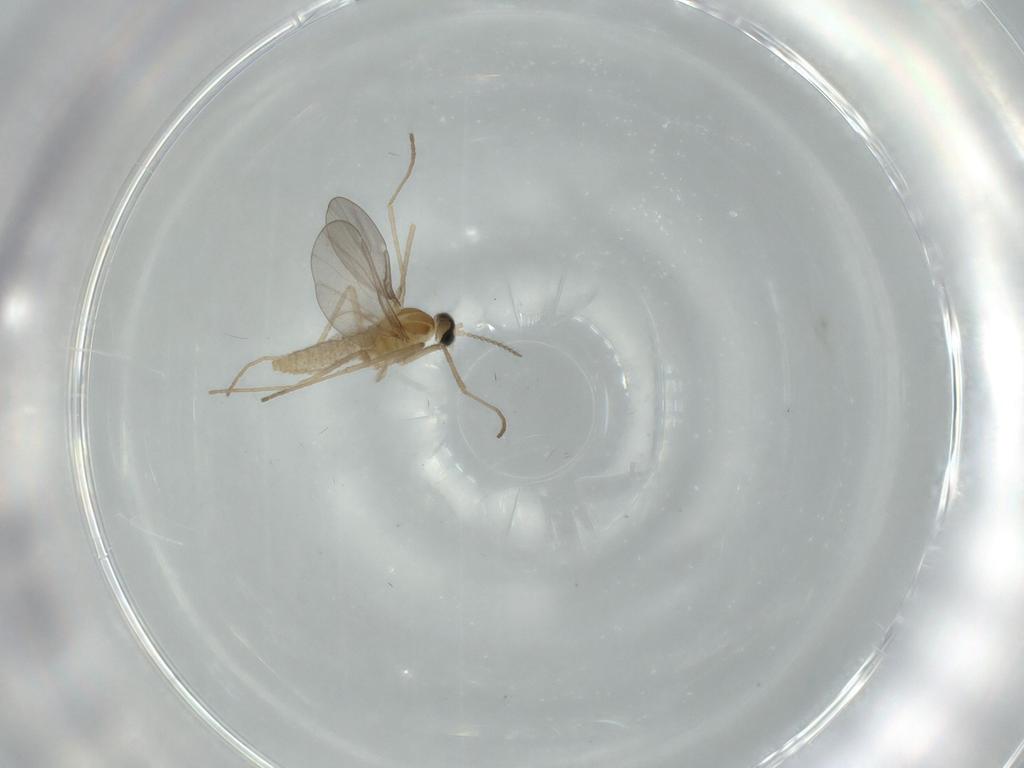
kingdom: Animalia
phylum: Arthropoda
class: Insecta
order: Diptera
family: Cecidomyiidae
